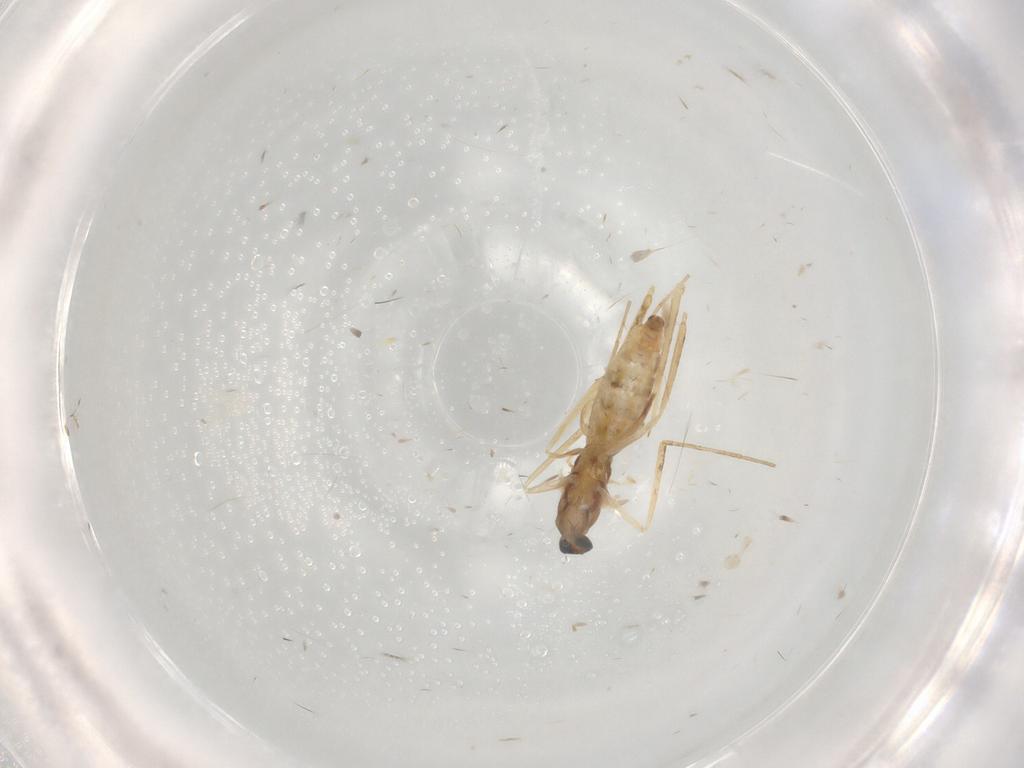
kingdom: Animalia
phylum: Arthropoda
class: Insecta
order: Diptera
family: Cecidomyiidae
